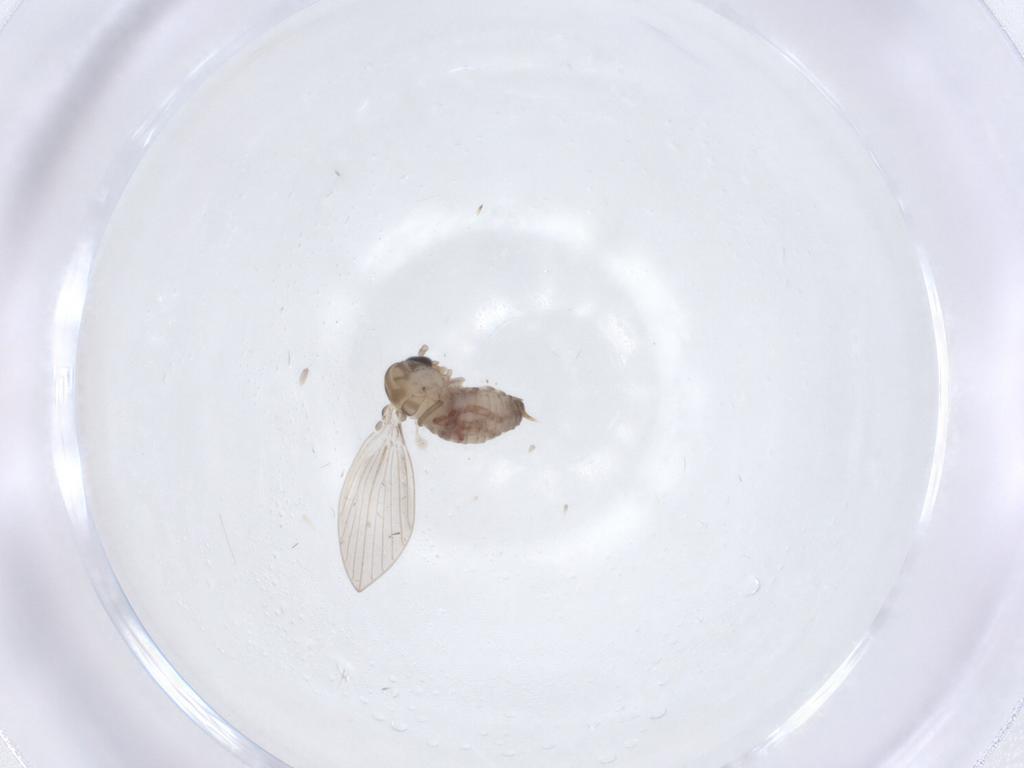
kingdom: Animalia
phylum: Arthropoda
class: Insecta
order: Diptera
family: Psychodidae
